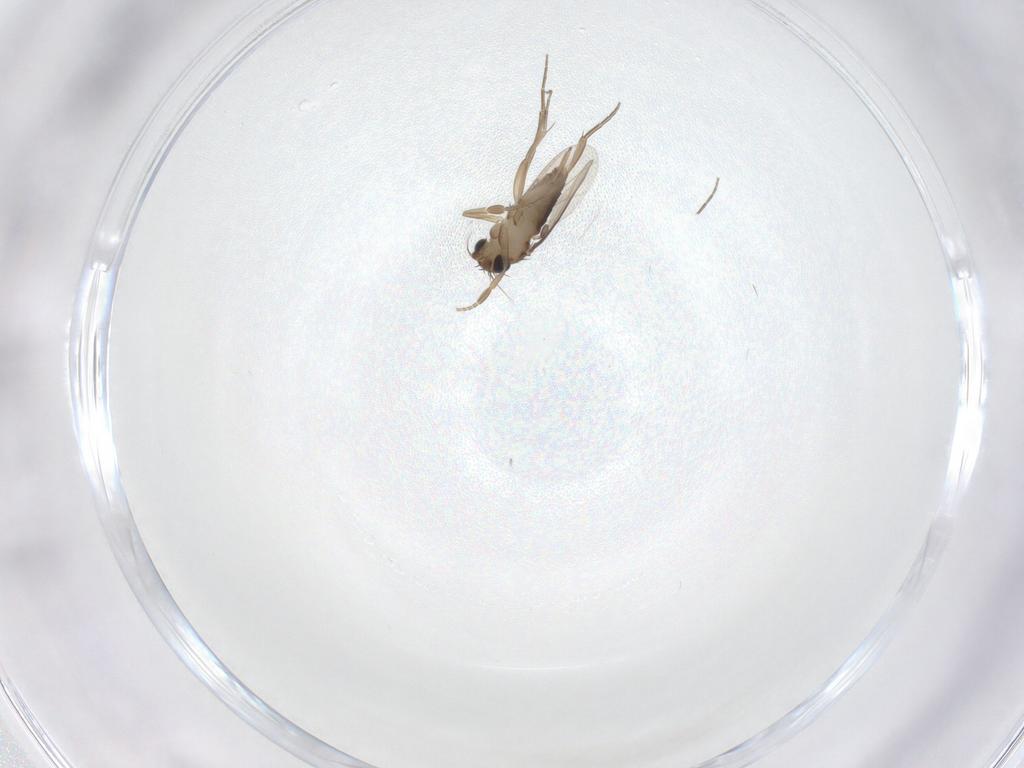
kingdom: Animalia
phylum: Arthropoda
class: Insecta
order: Diptera
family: Phoridae
